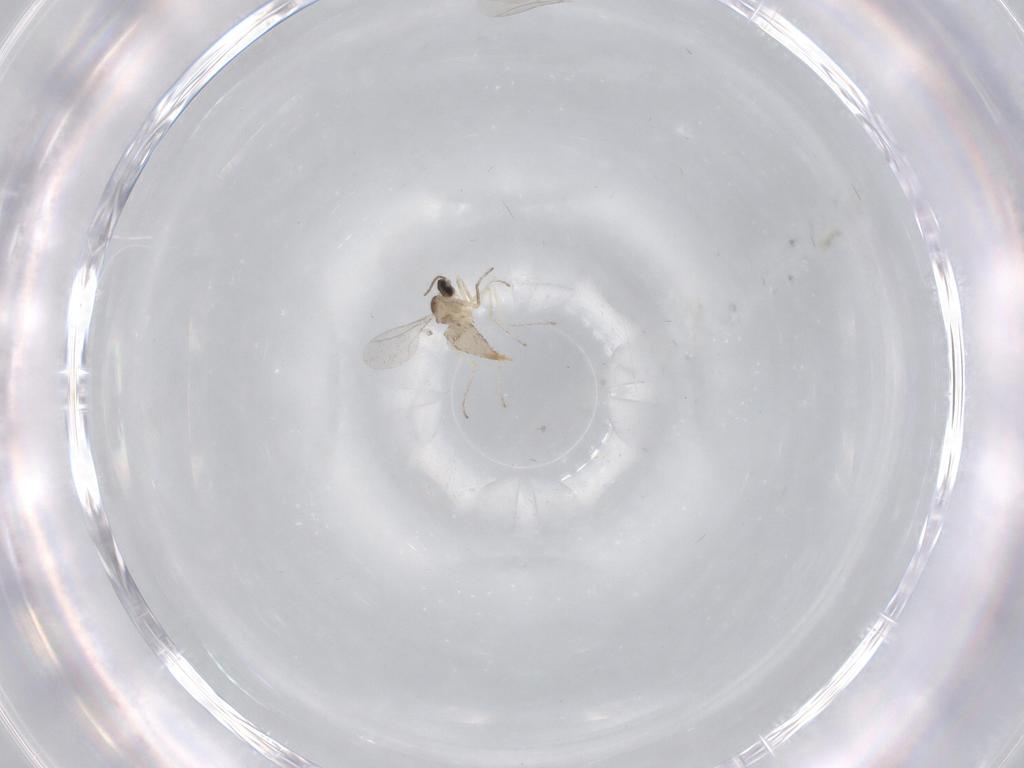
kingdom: Animalia
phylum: Arthropoda
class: Insecta
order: Diptera
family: Cecidomyiidae
